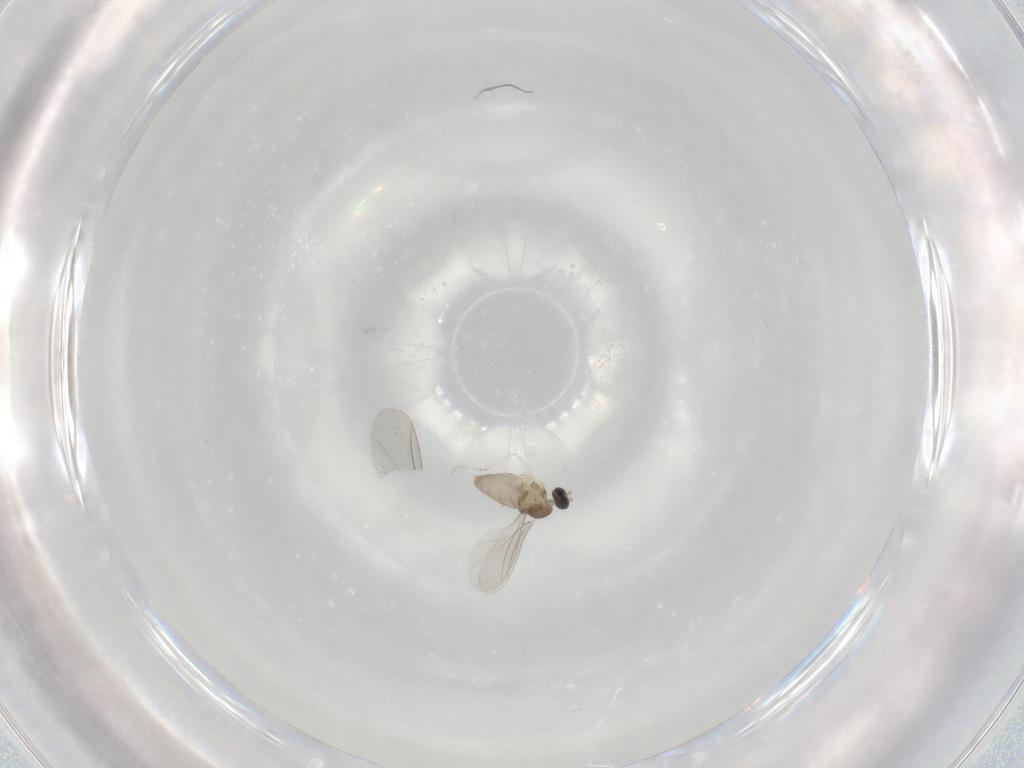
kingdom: Animalia
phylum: Arthropoda
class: Insecta
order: Diptera
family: Cecidomyiidae
